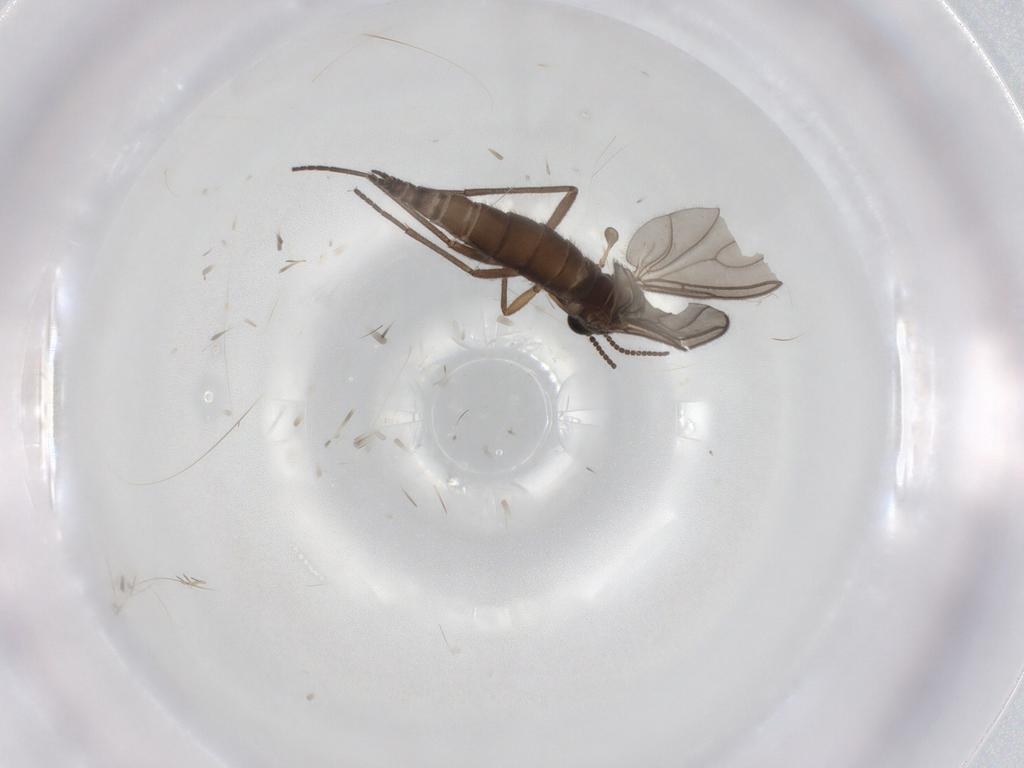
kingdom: Animalia
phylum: Arthropoda
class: Insecta
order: Diptera
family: Sciaridae
